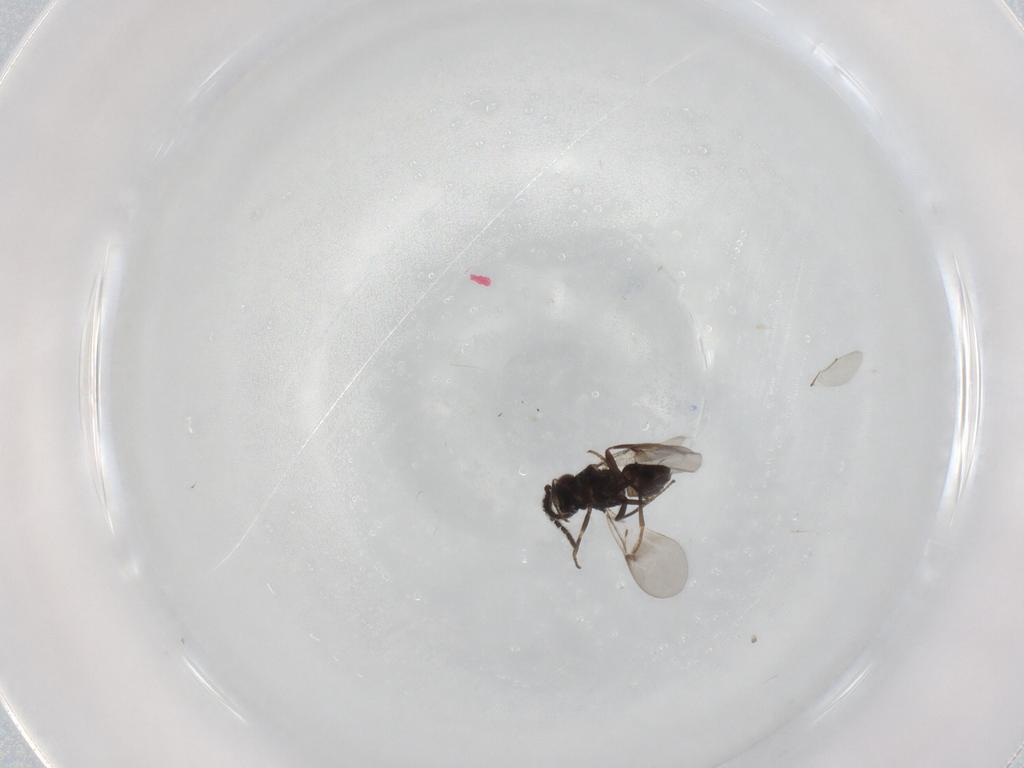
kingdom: Animalia
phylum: Arthropoda
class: Insecta
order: Hymenoptera
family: Encyrtidae
